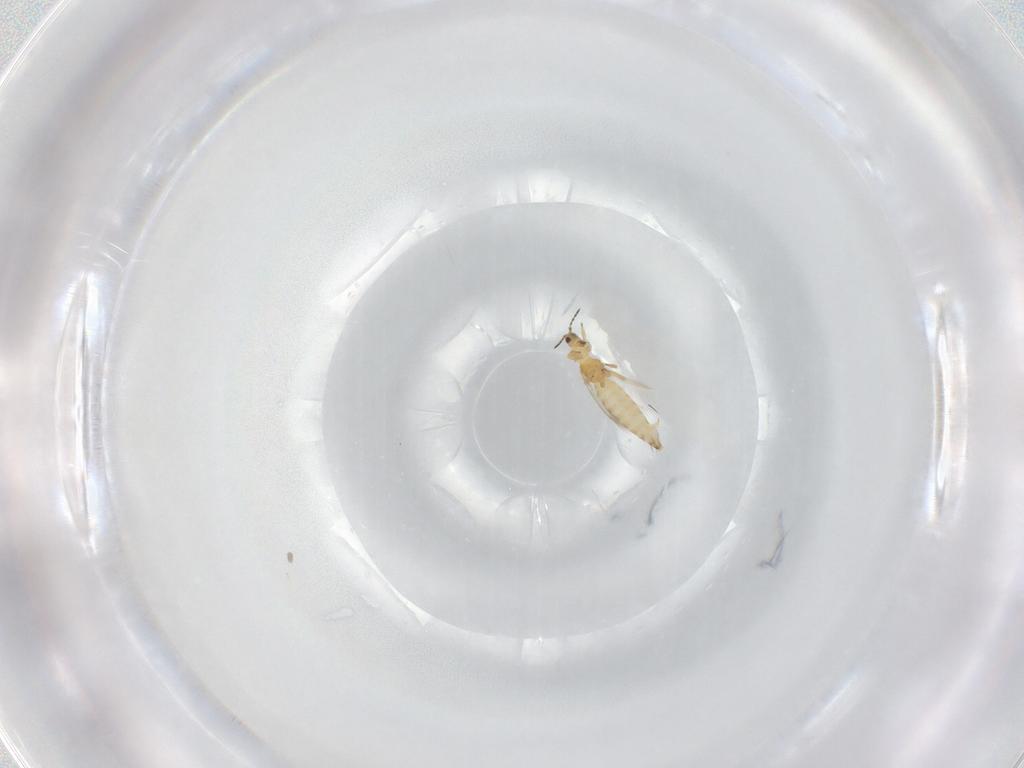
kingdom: Animalia
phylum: Arthropoda
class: Insecta
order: Thysanoptera
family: Thripidae
